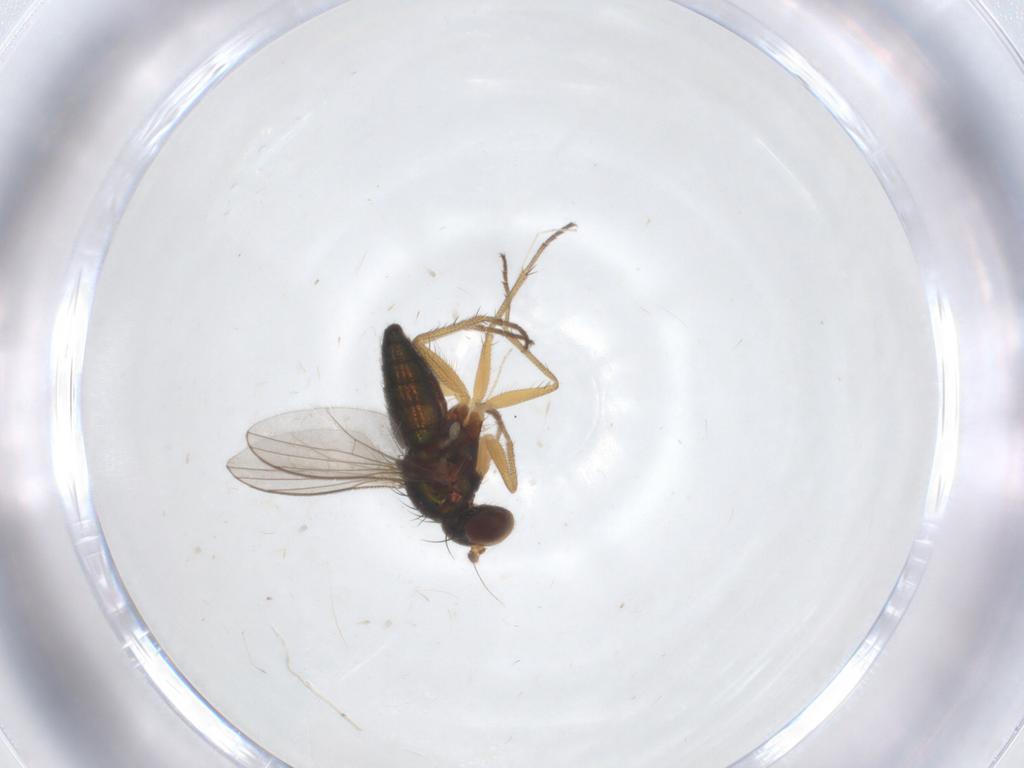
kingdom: Animalia
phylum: Arthropoda
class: Insecta
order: Diptera
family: Cecidomyiidae
